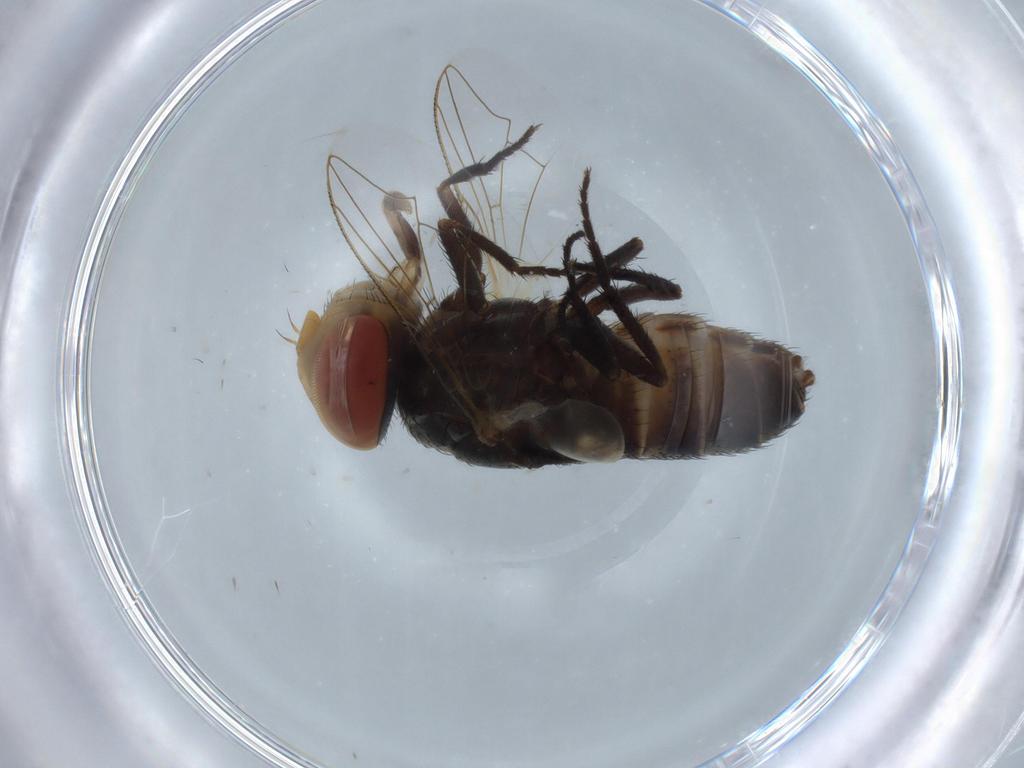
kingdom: Animalia
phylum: Arthropoda
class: Insecta
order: Diptera
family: Sarcophagidae
